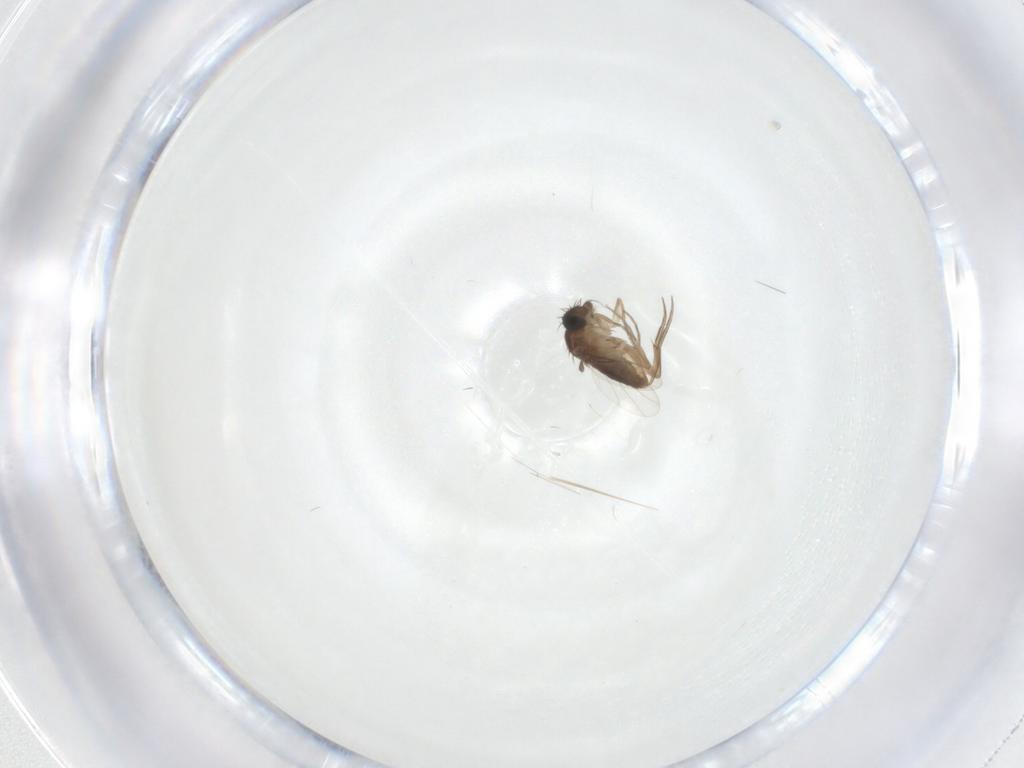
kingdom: Animalia
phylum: Arthropoda
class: Insecta
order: Diptera
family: Phoridae
